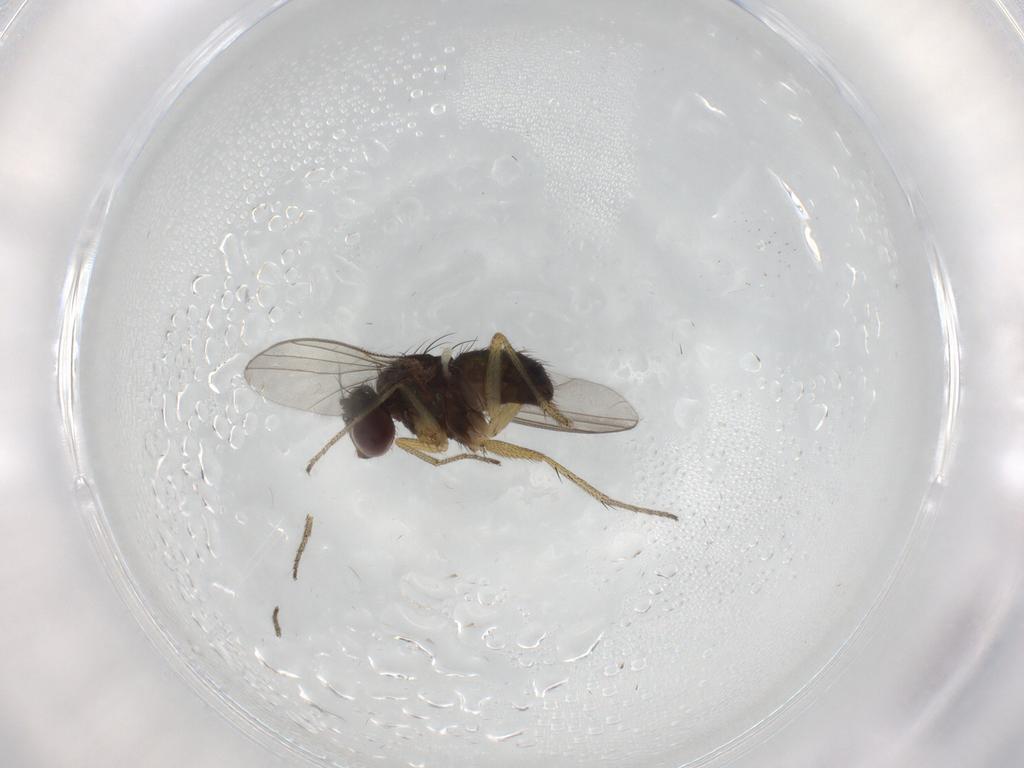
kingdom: Animalia
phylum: Arthropoda
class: Insecta
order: Diptera
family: Dolichopodidae
